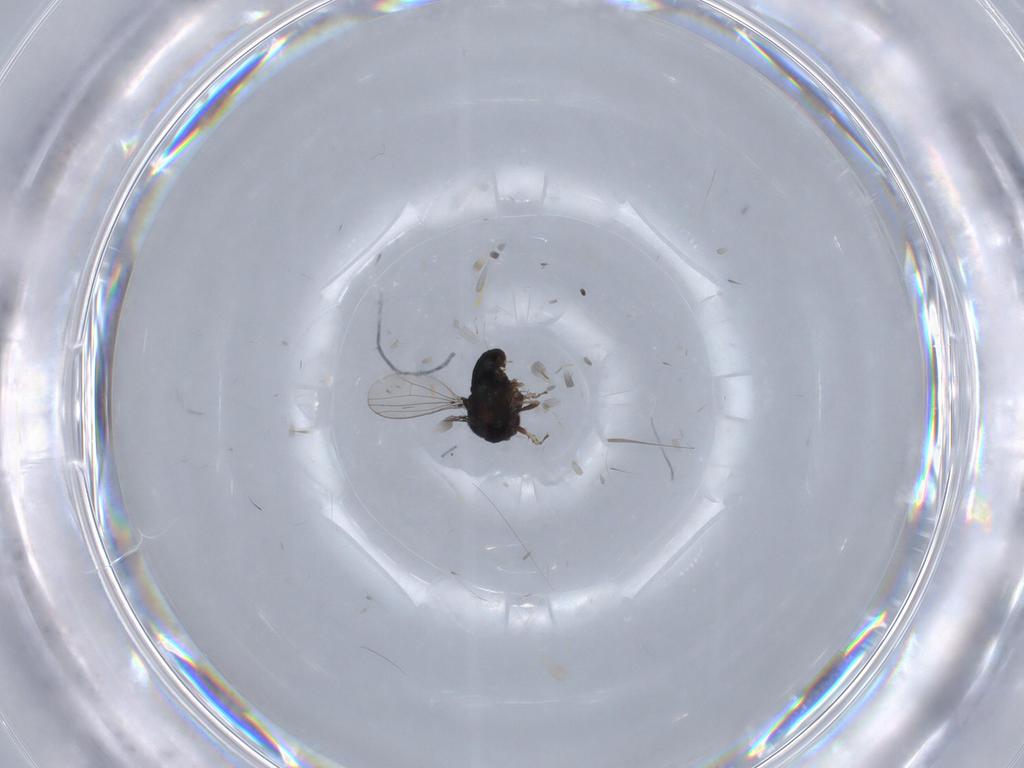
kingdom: Animalia
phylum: Arthropoda
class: Insecta
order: Diptera
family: Dolichopodidae
